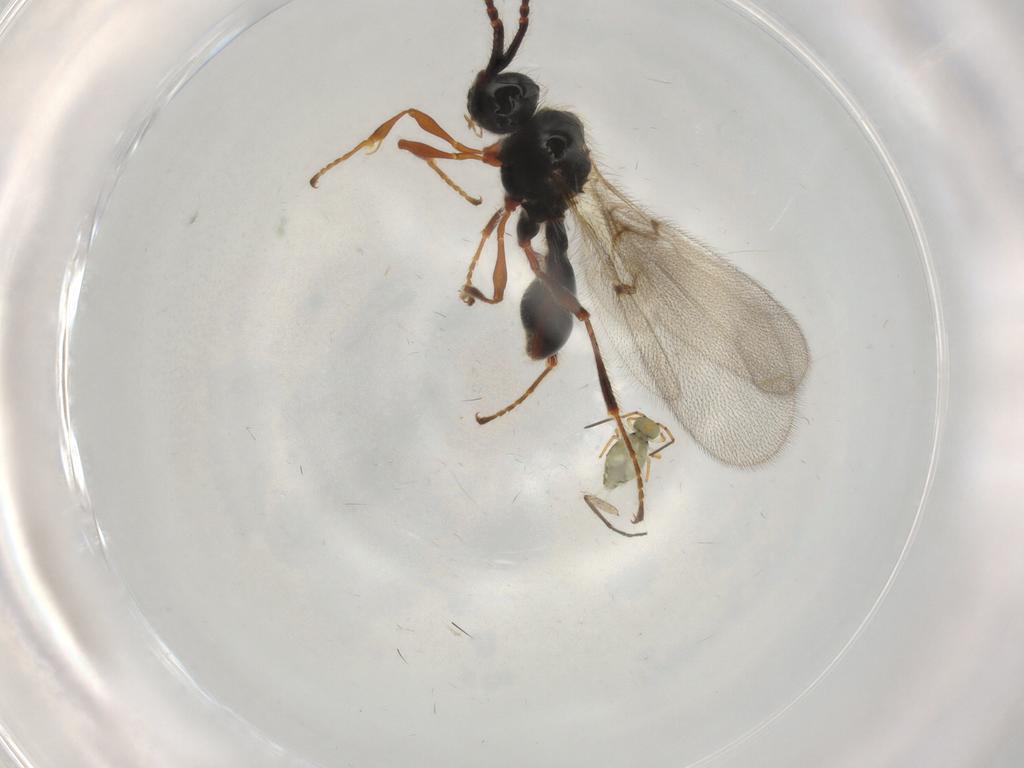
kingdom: Animalia
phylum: Arthropoda
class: Insecta
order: Hymenoptera
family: Diapriidae
